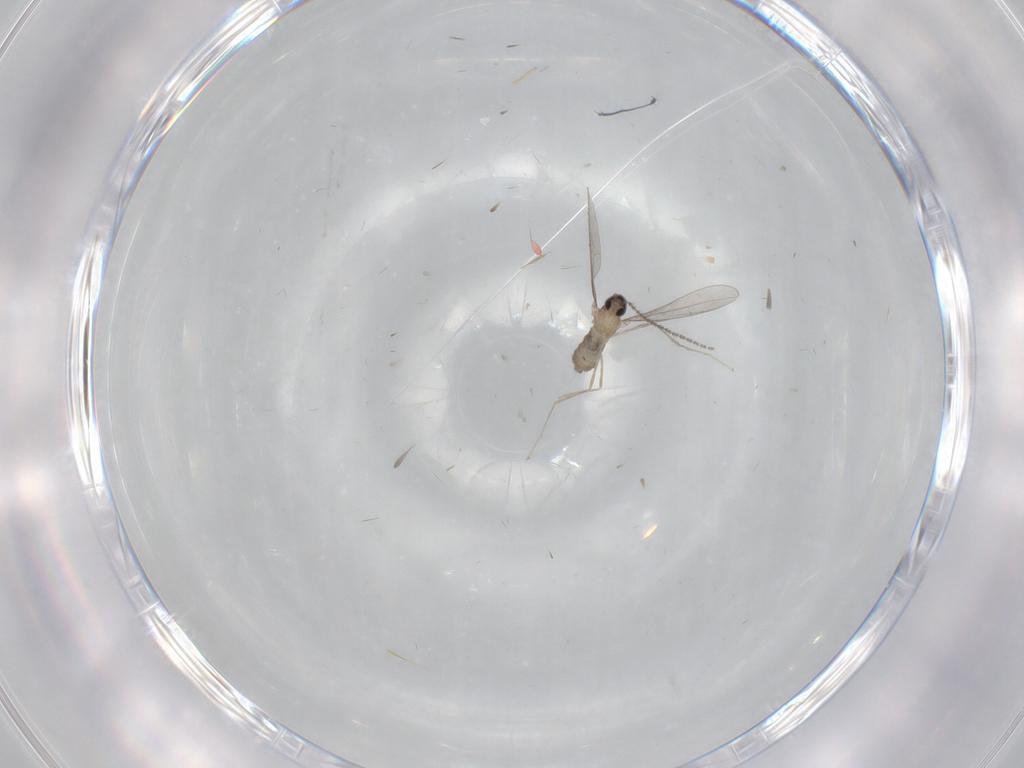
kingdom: Animalia
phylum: Arthropoda
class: Insecta
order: Diptera
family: Cecidomyiidae
